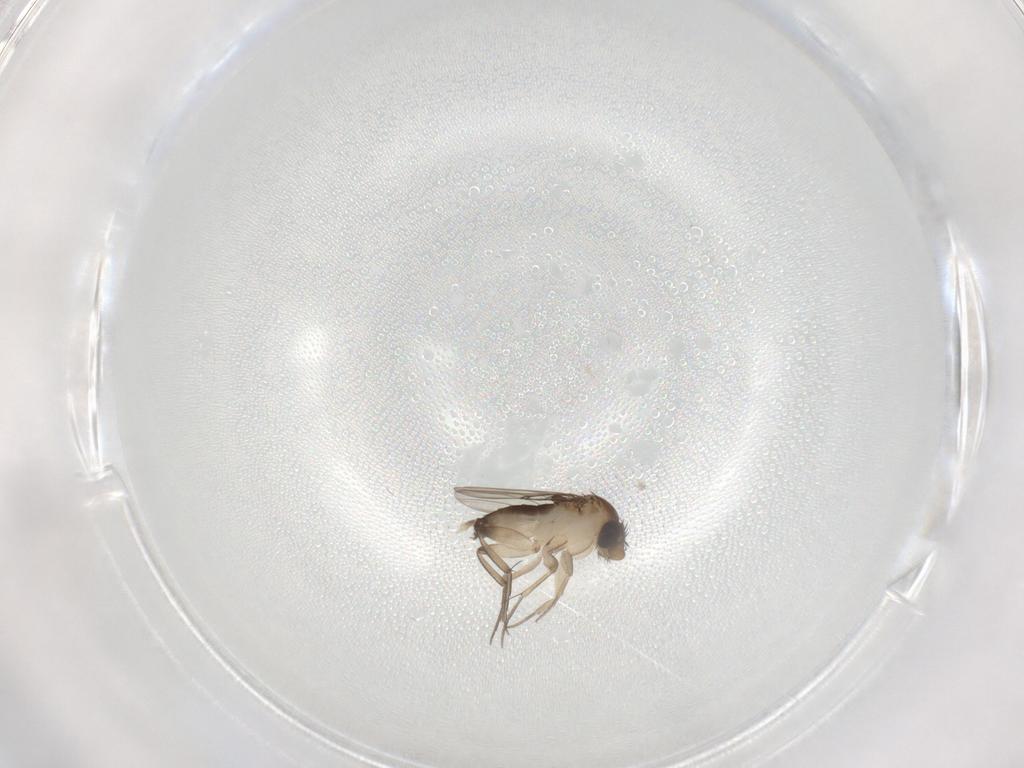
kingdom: Animalia
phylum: Arthropoda
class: Insecta
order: Diptera
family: Phoridae
